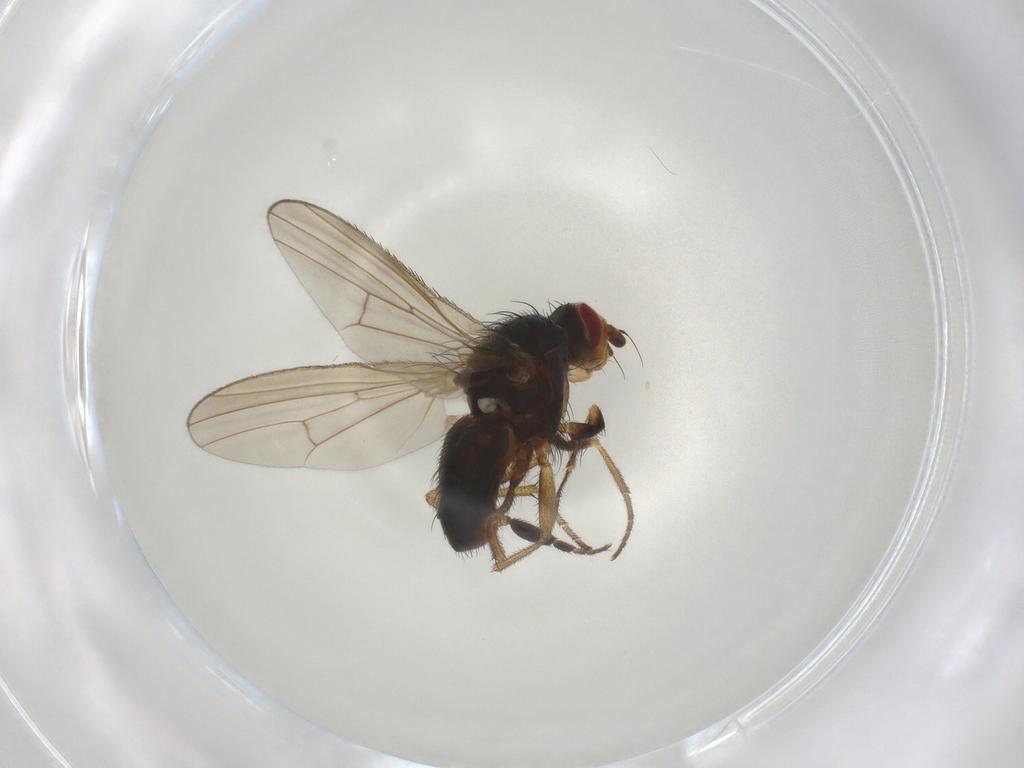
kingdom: Animalia
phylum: Arthropoda
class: Insecta
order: Diptera
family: Heleomyzidae
